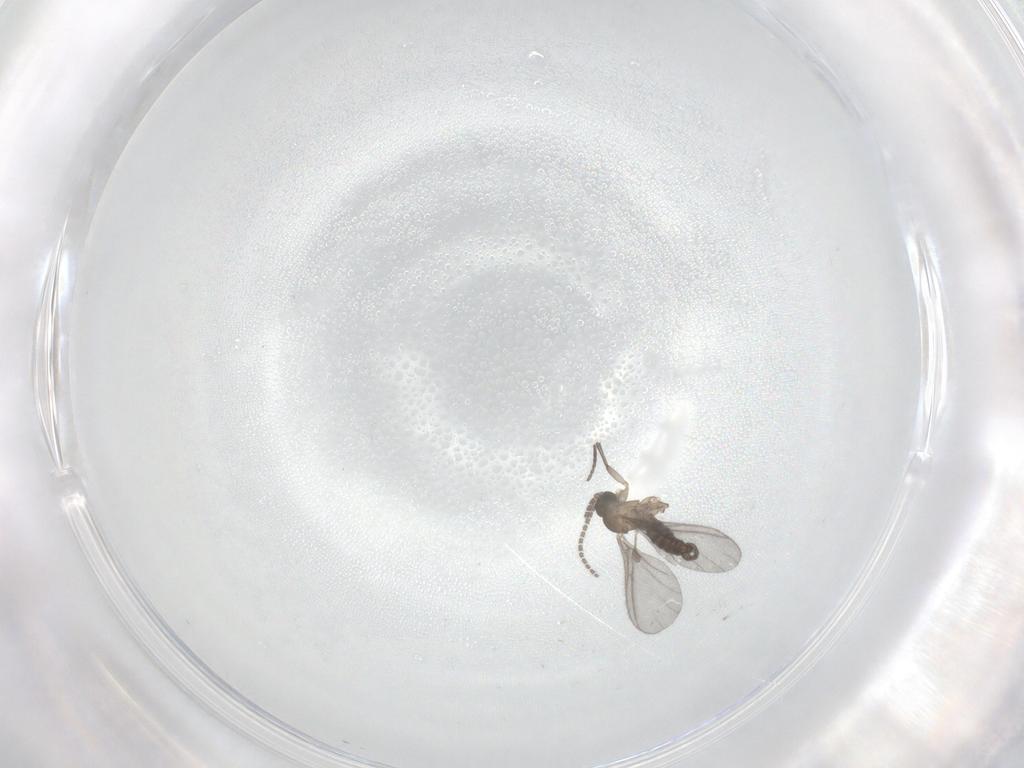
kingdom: Animalia
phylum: Arthropoda
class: Insecta
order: Diptera
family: Sciaridae
